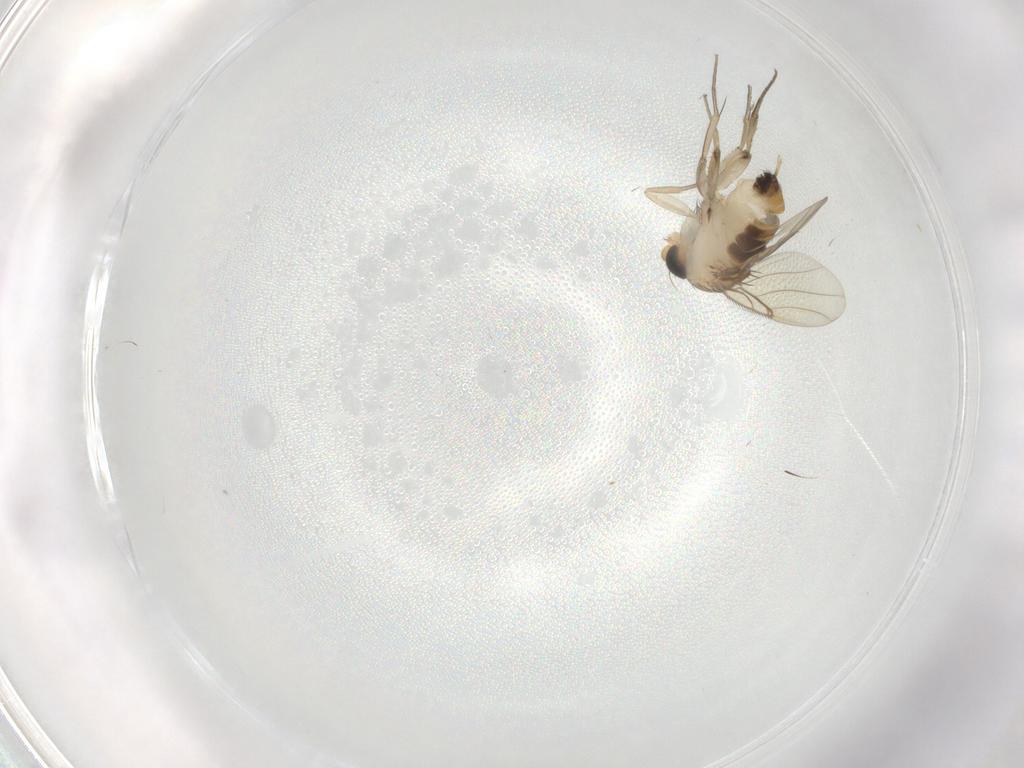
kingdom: Animalia
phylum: Arthropoda
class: Insecta
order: Diptera
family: Phoridae
